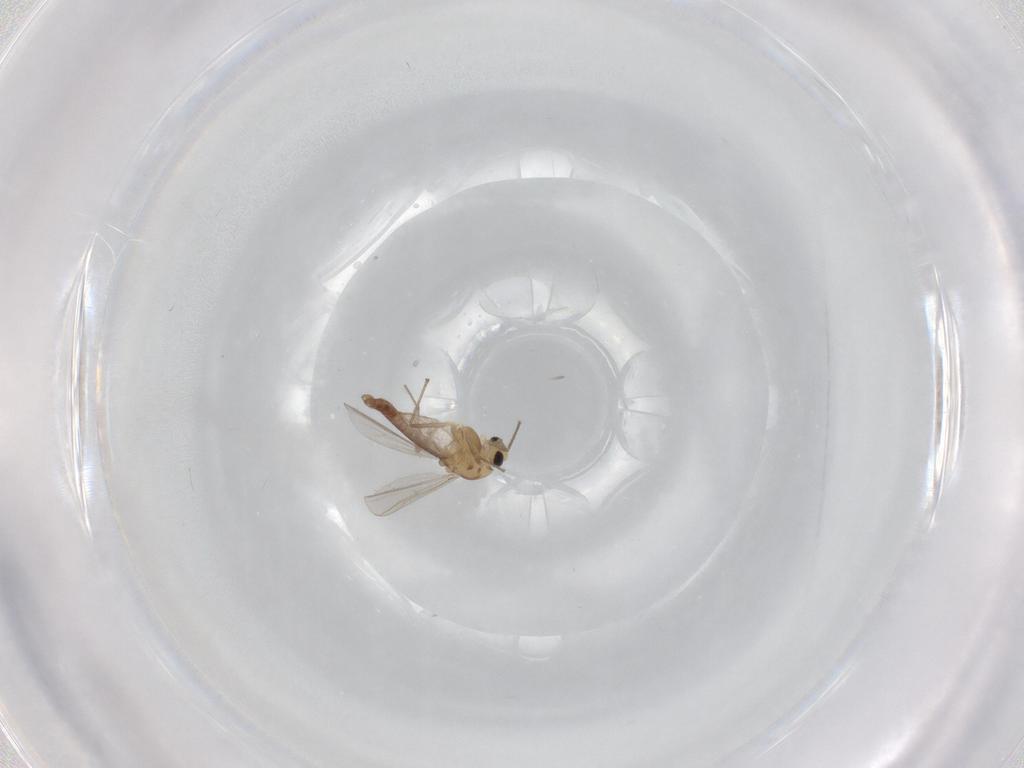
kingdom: Animalia
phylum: Arthropoda
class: Insecta
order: Diptera
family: Chironomidae
